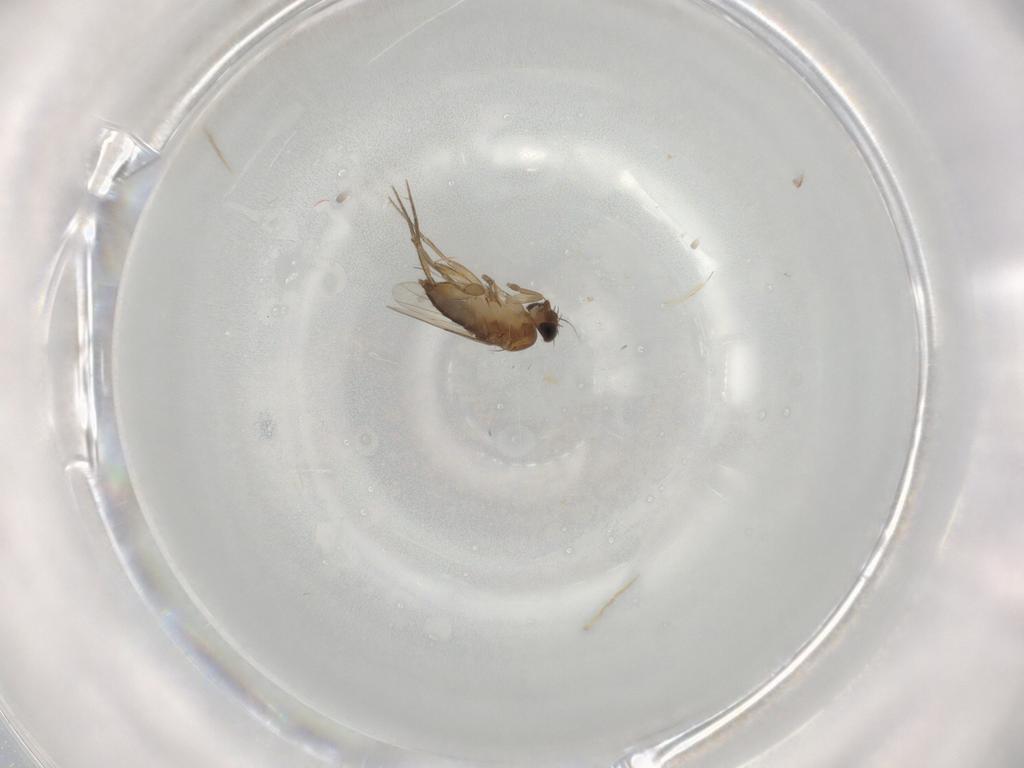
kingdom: Animalia
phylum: Arthropoda
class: Insecta
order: Diptera
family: Phoridae
